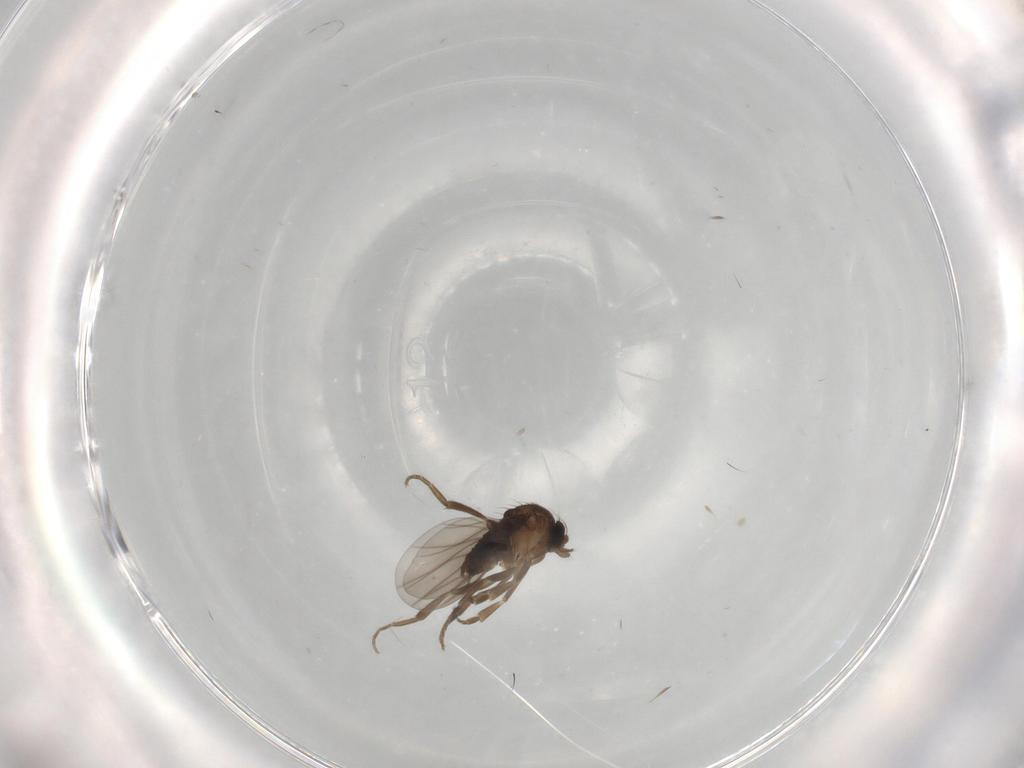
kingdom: Animalia
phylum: Arthropoda
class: Insecta
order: Diptera
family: Psychodidae
